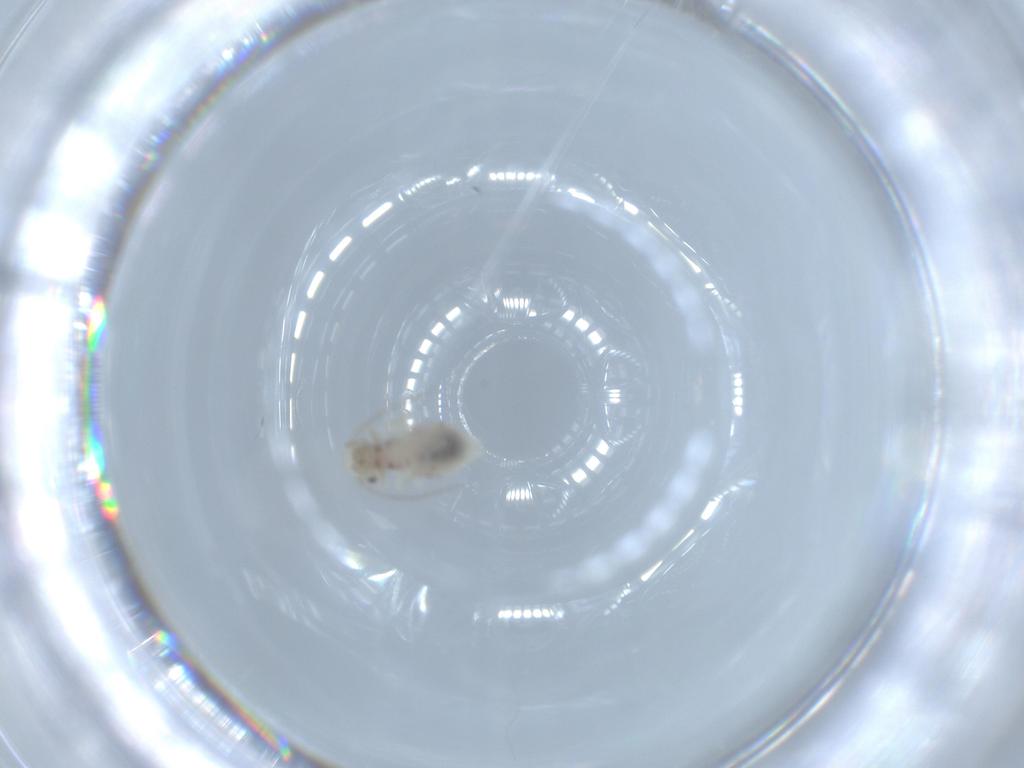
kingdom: Animalia
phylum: Arthropoda
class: Insecta
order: Psocodea
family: Caeciliusidae
